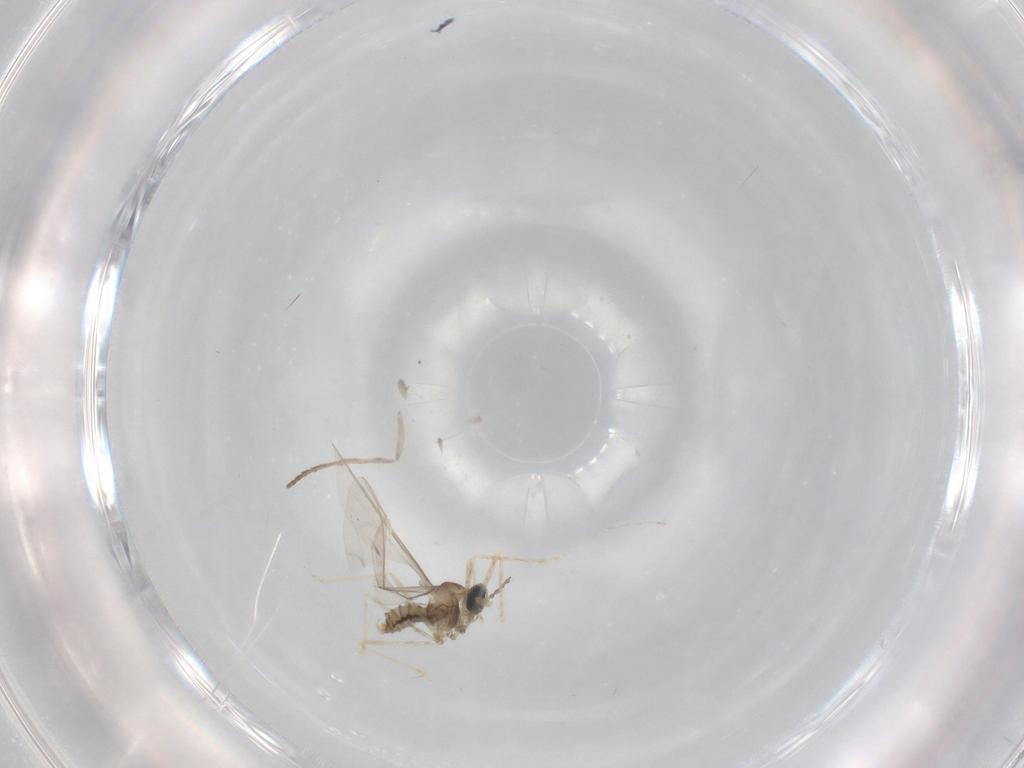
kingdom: Animalia
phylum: Arthropoda
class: Insecta
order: Diptera
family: Cecidomyiidae
